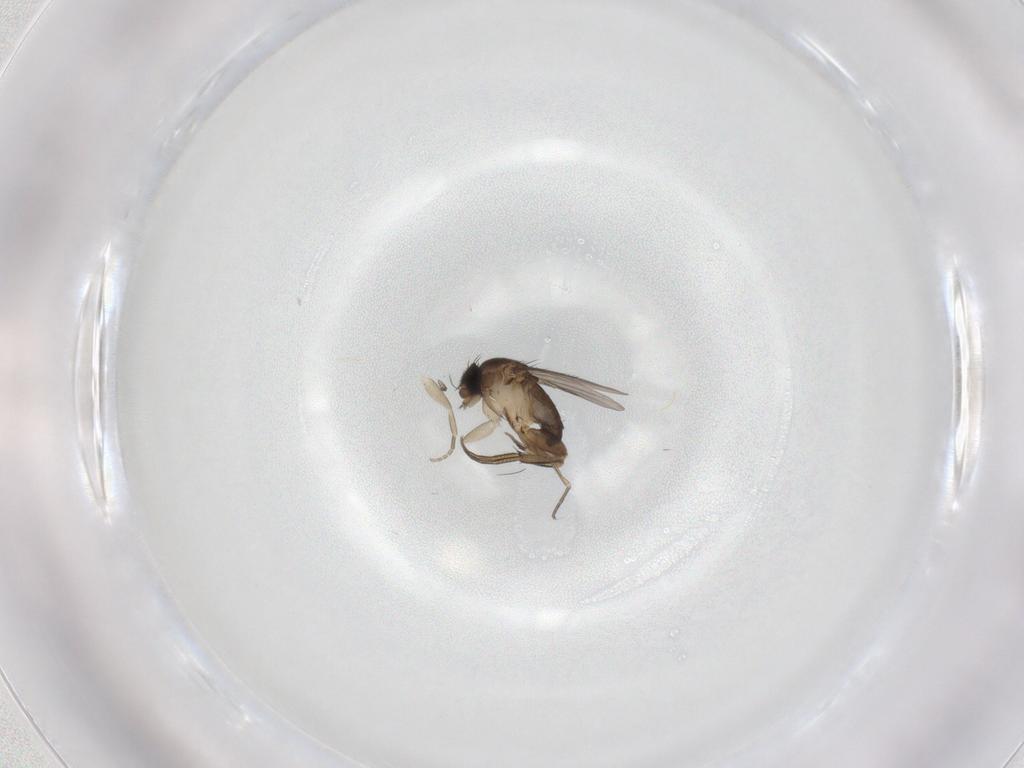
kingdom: Animalia
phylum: Arthropoda
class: Insecta
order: Diptera
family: Phoridae
